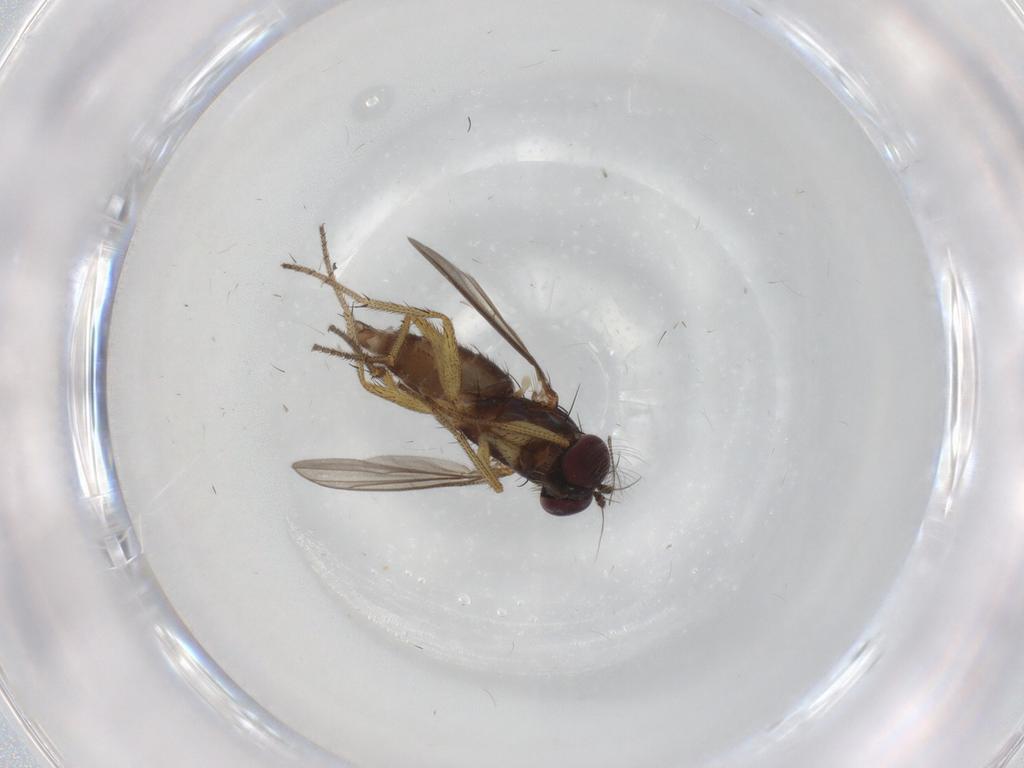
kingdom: Animalia
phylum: Arthropoda
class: Insecta
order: Diptera
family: Dolichopodidae
